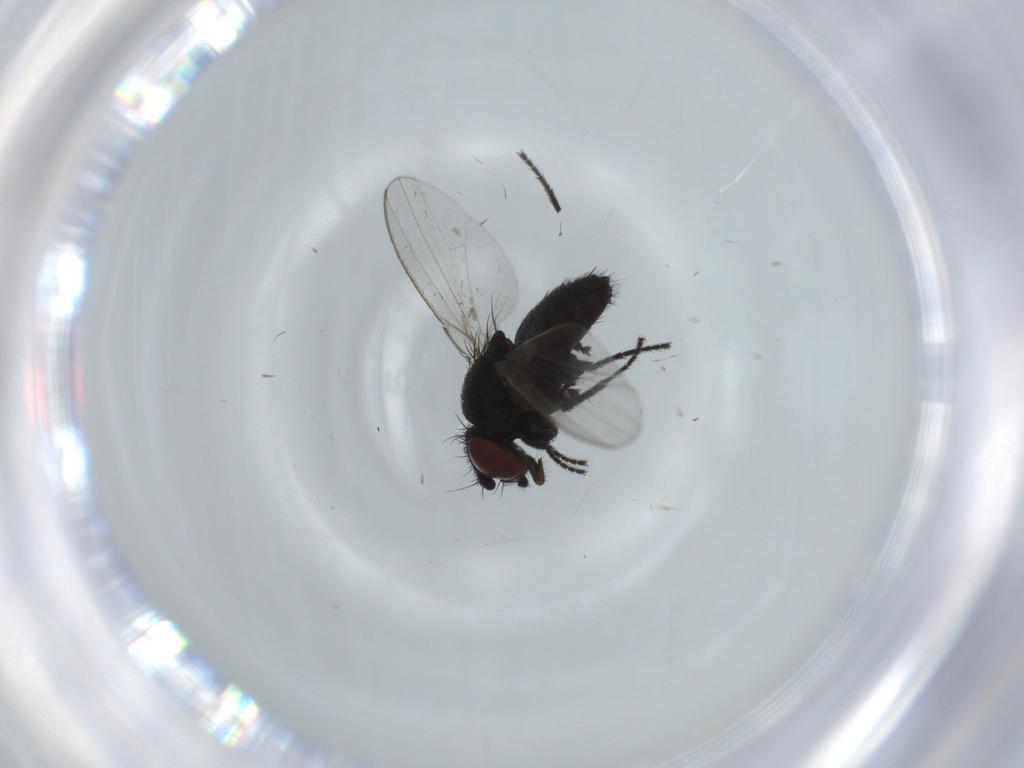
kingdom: Animalia
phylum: Arthropoda
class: Insecta
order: Diptera
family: Milichiidae
